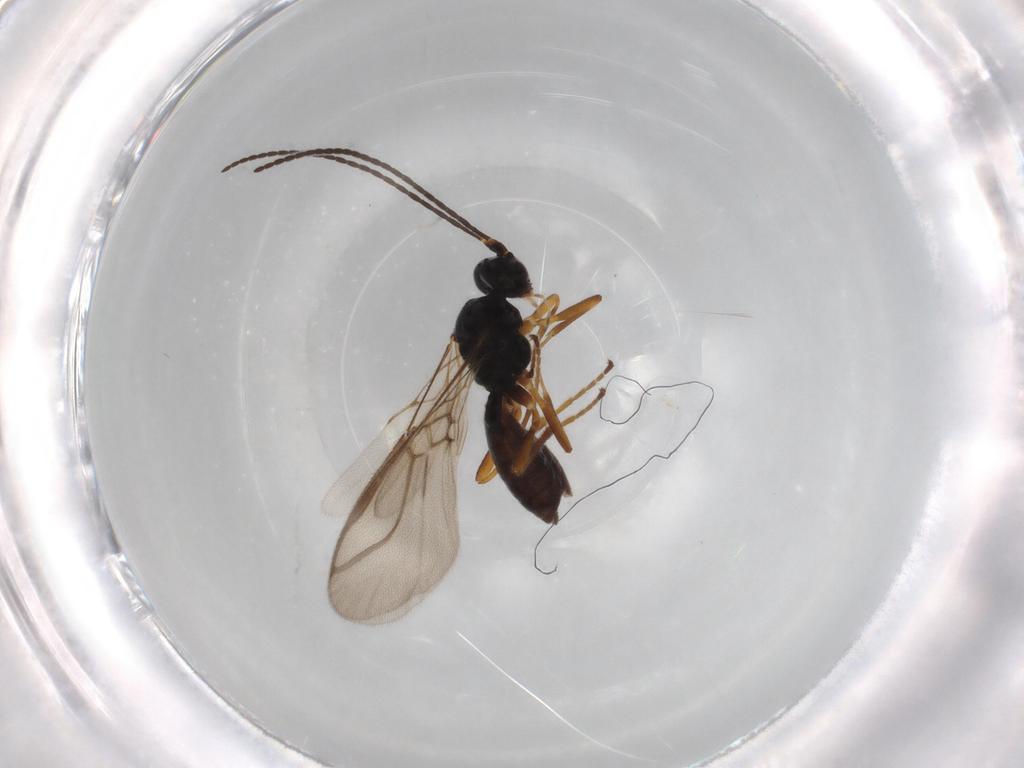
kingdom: Animalia
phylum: Arthropoda
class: Insecta
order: Hymenoptera
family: Braconidae
